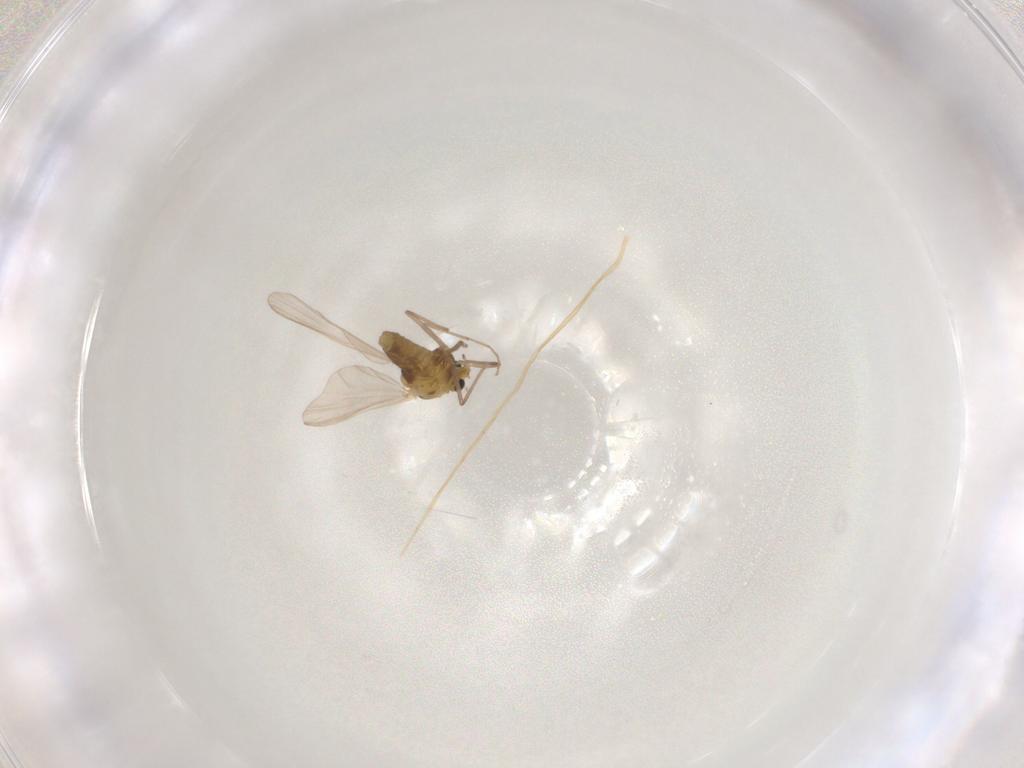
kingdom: Animalia
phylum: Arthropoda
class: Insecta
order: Diptera
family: Chironomidae
